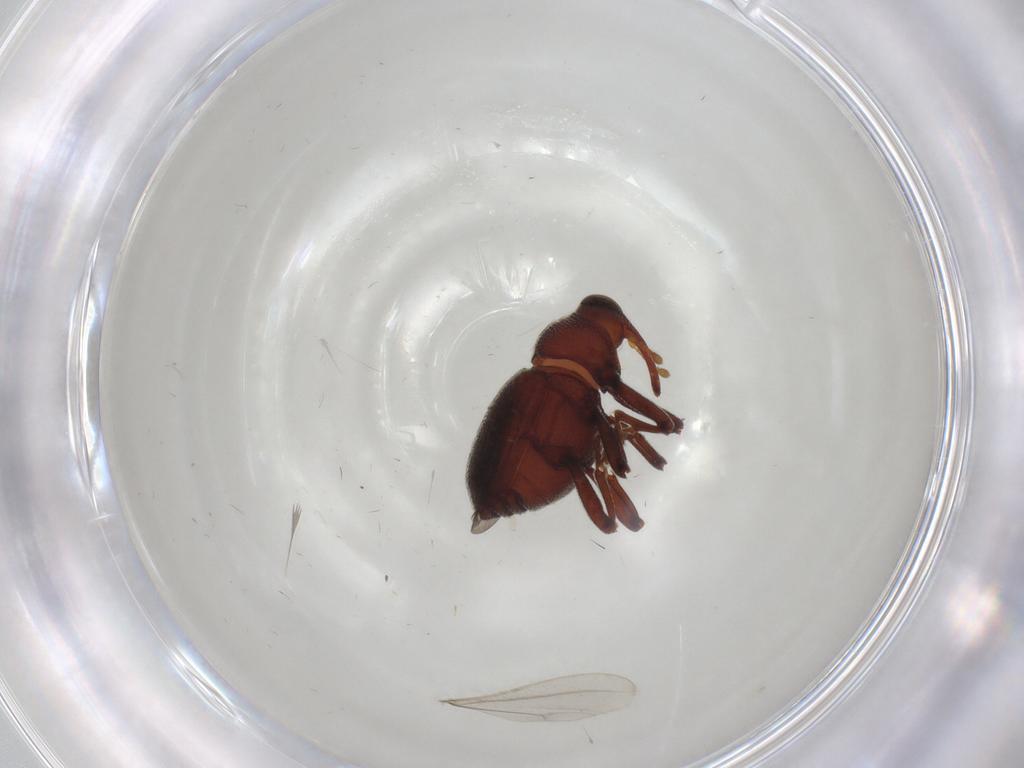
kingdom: Animalia
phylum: Arthropoda
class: Insecta
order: Coleoptera
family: Curculionidae
